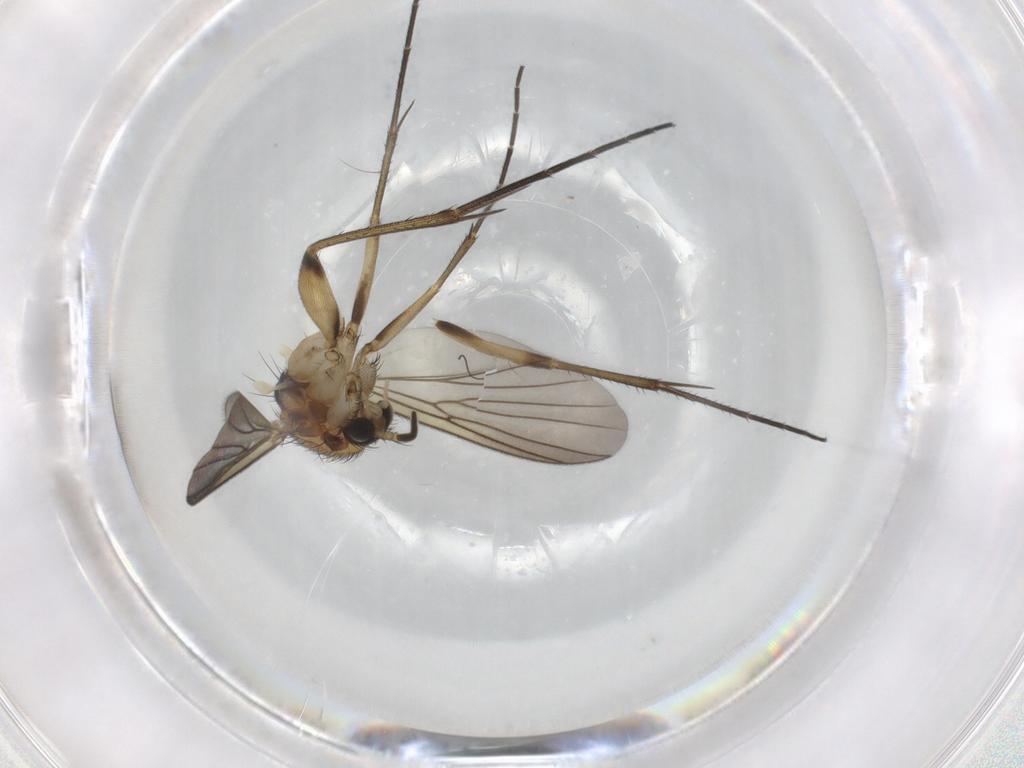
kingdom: Animalia
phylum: Arthropoda
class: Insecta
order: Diptera
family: Mycetophilidae
